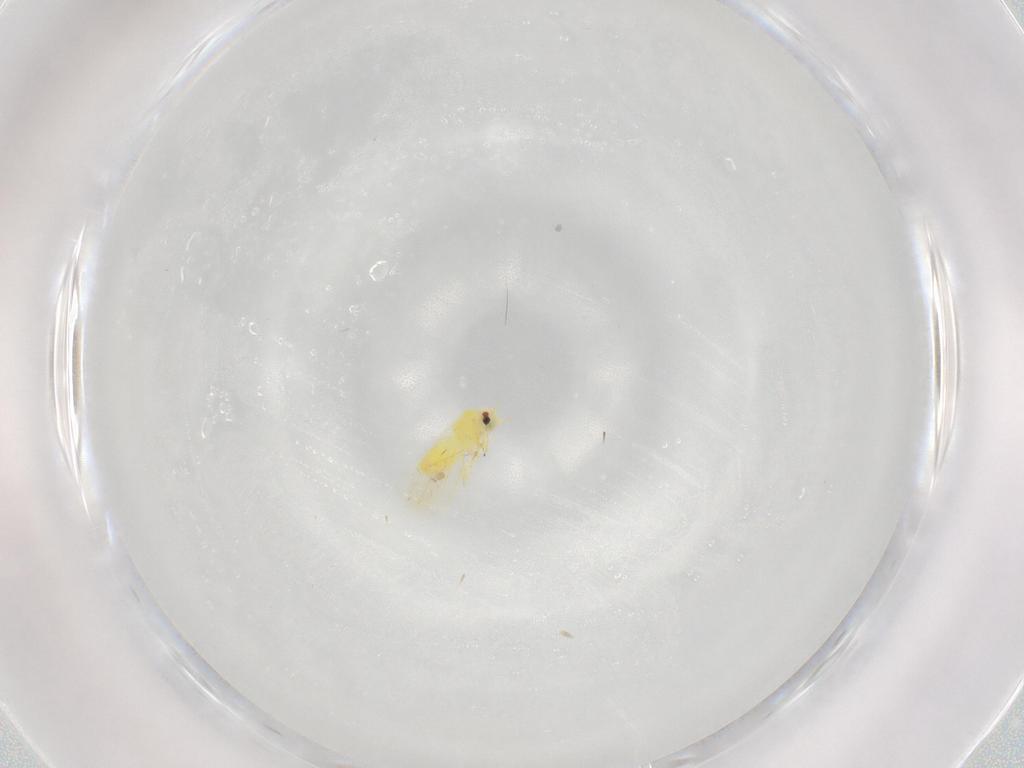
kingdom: Animalia
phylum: Arthropoda
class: Insecta
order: Hemiptera
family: Aleyrodidae
